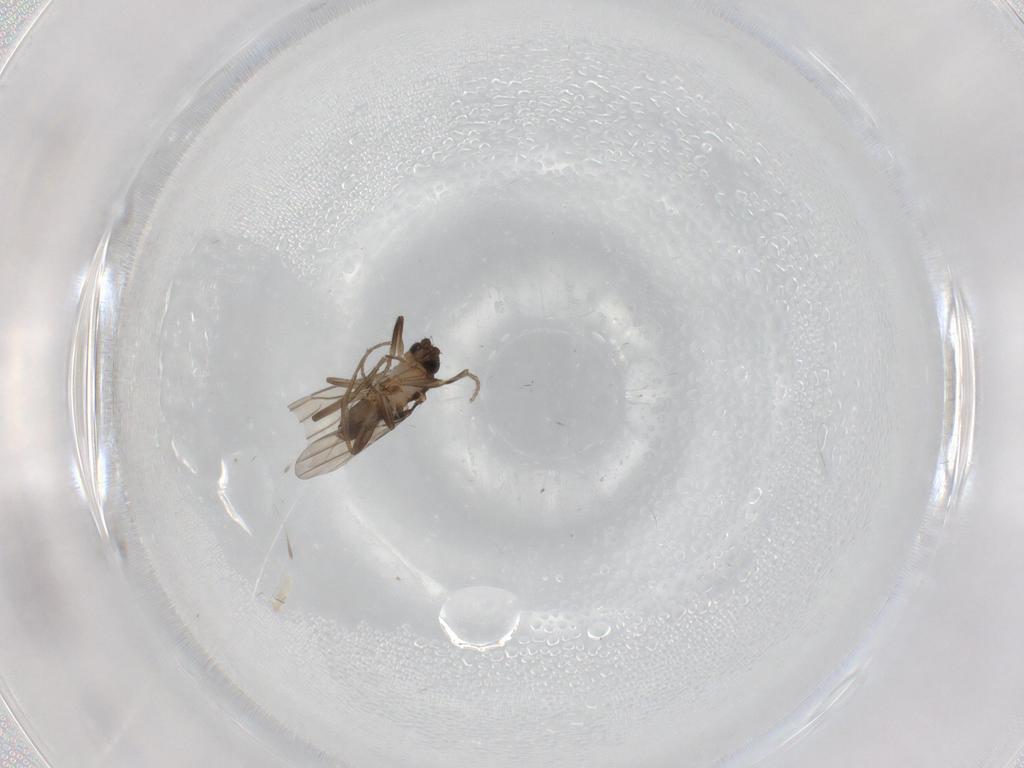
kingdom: Animalia
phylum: Arthropoda
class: Insecta
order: Diptera
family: Phoridae
